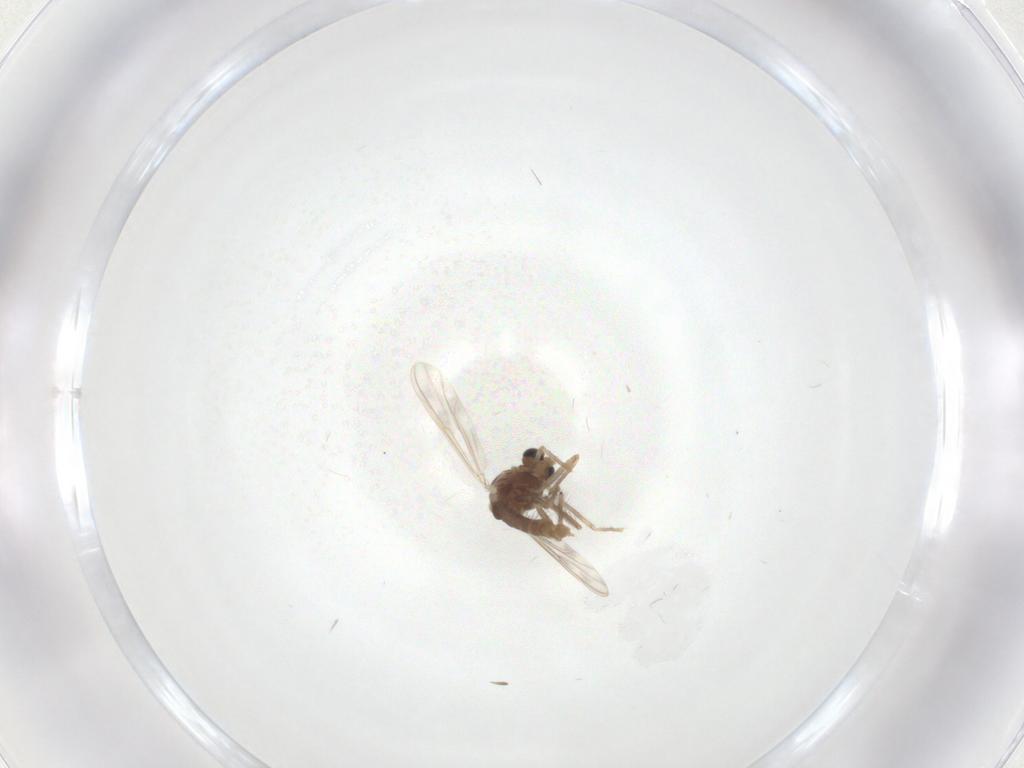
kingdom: Animalia
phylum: Arthropoda
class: Insecta
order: Diptera
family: Chironomidae
